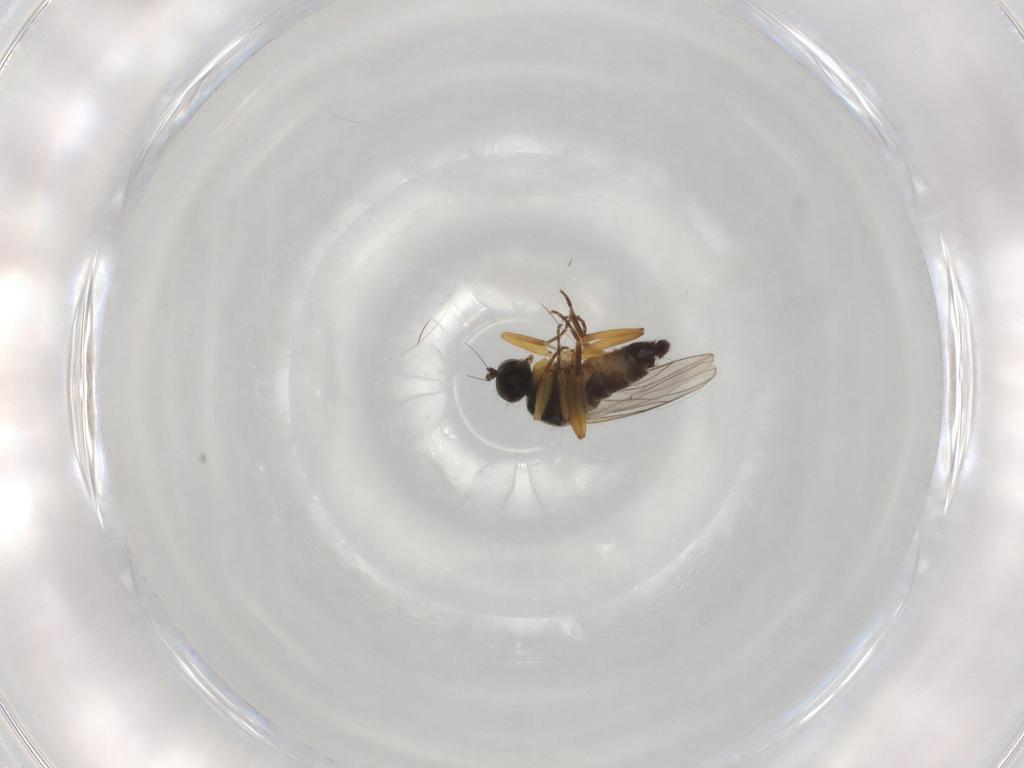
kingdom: Animalia
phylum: Arthropoda
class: Insecta
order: Diptera
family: Hybotidae
